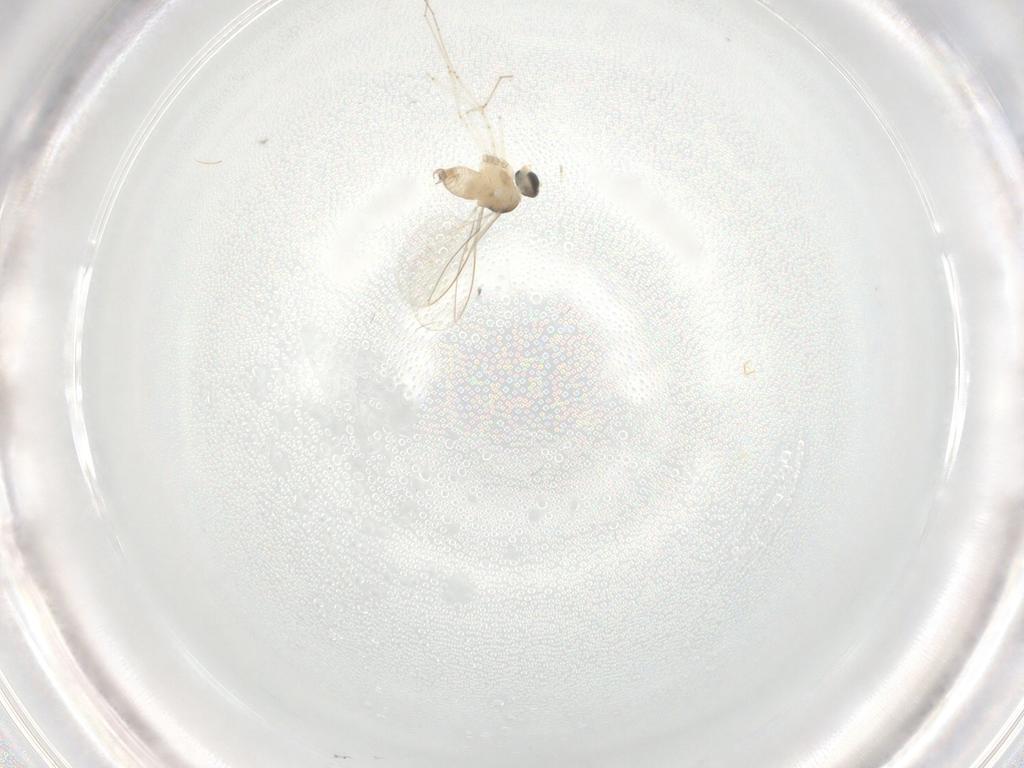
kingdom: Animalia
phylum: Arthropoda
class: Insecta
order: Diptera
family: Cecidomyiidae
